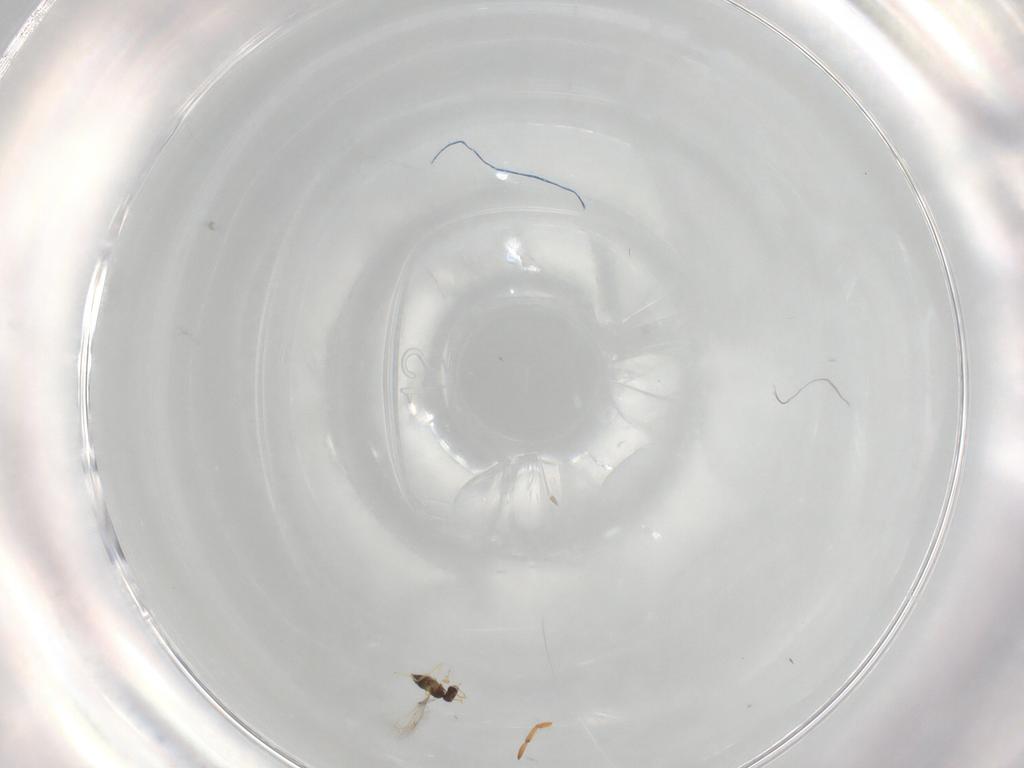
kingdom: Animalia
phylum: Arthropoda
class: Insecta
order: Hymenoptera
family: Mymaridae
